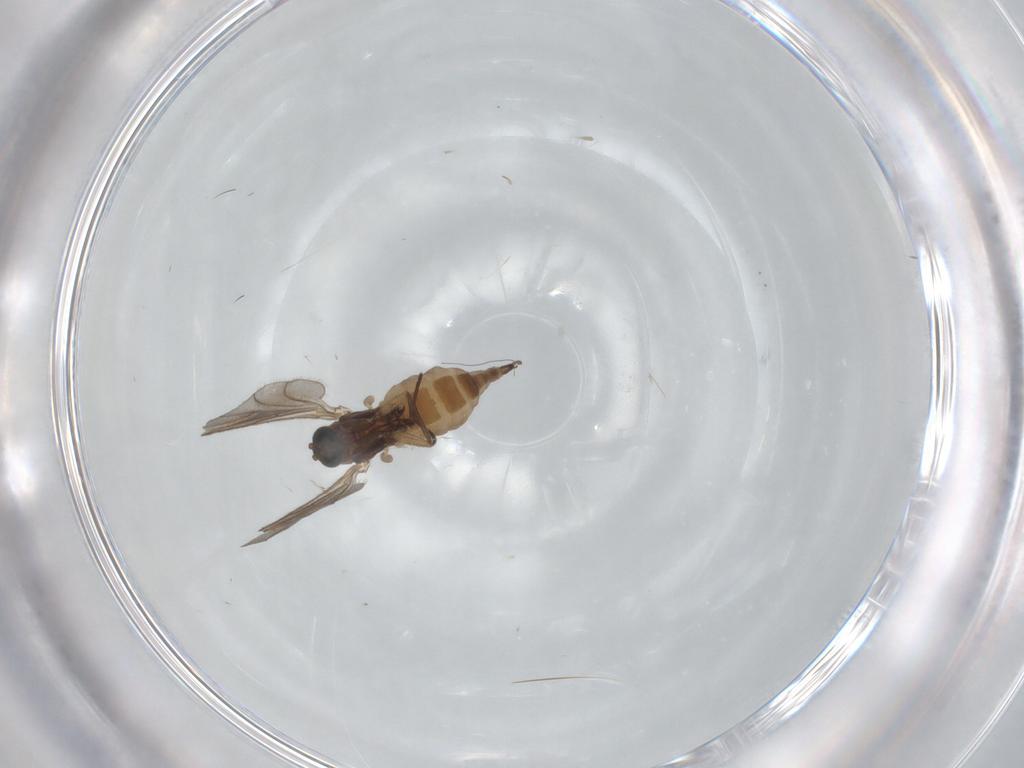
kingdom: Animalia
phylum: Arthropoda
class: Insecta
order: Diptera
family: Sciaridae
